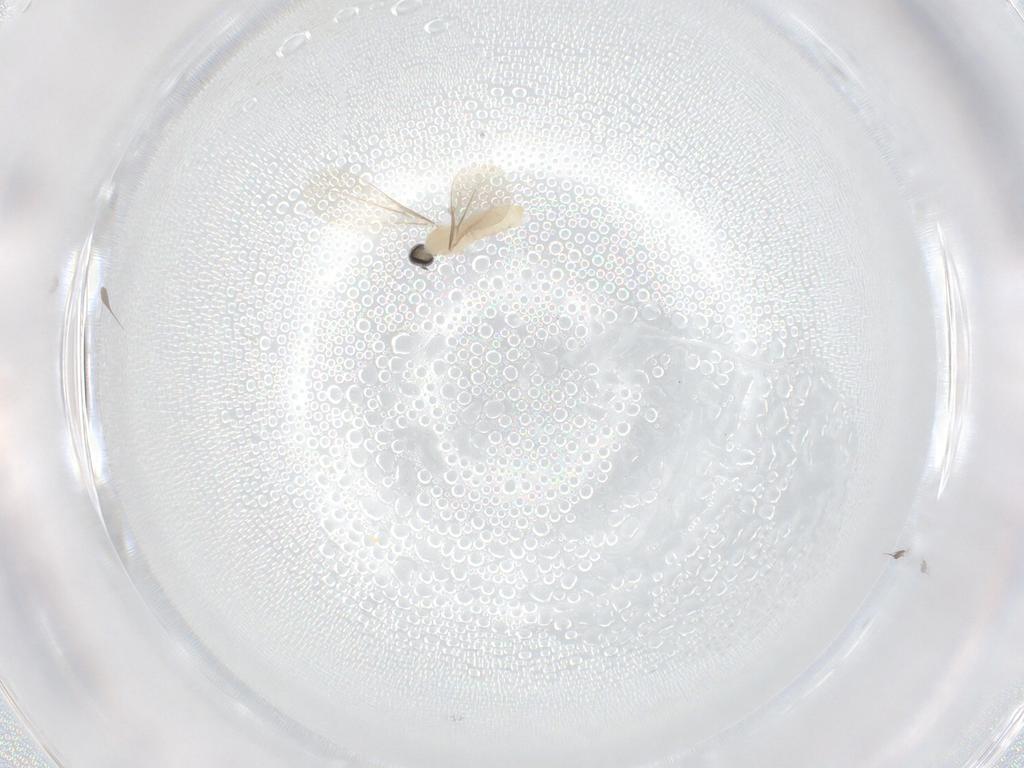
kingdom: Animalia
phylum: Arthropoda
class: Insecta
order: Diptera
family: Cecidomyiidae
